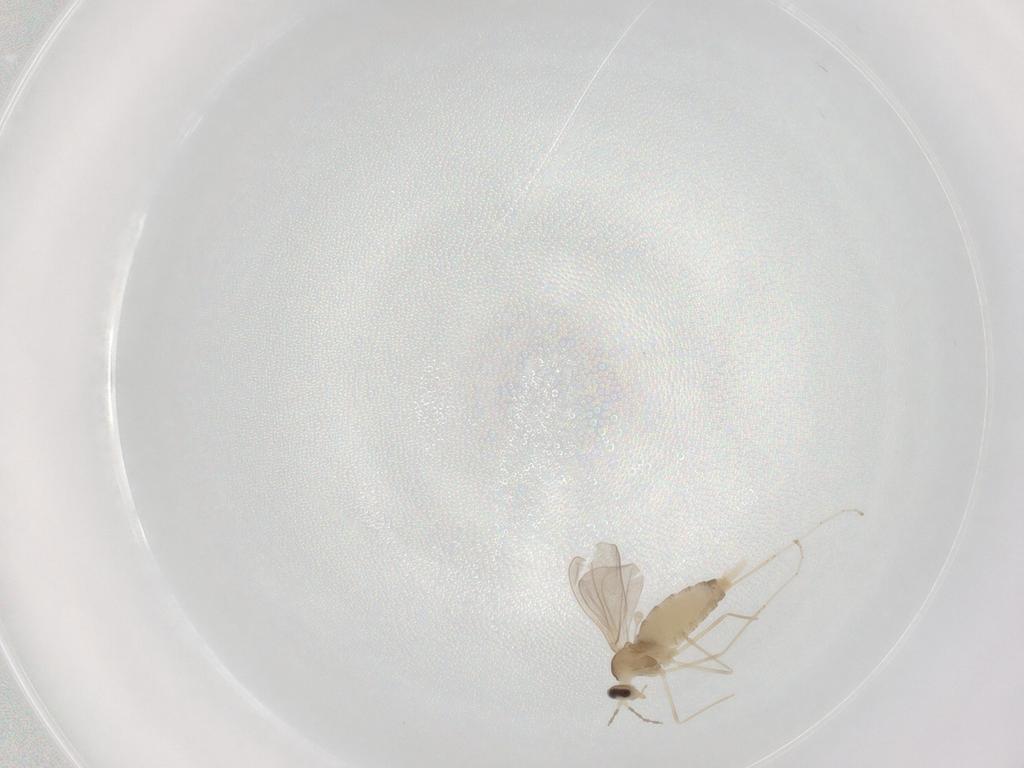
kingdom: Animalia
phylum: Arthropoda
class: Insecta
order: Diptera
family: Cecidomyiidae
